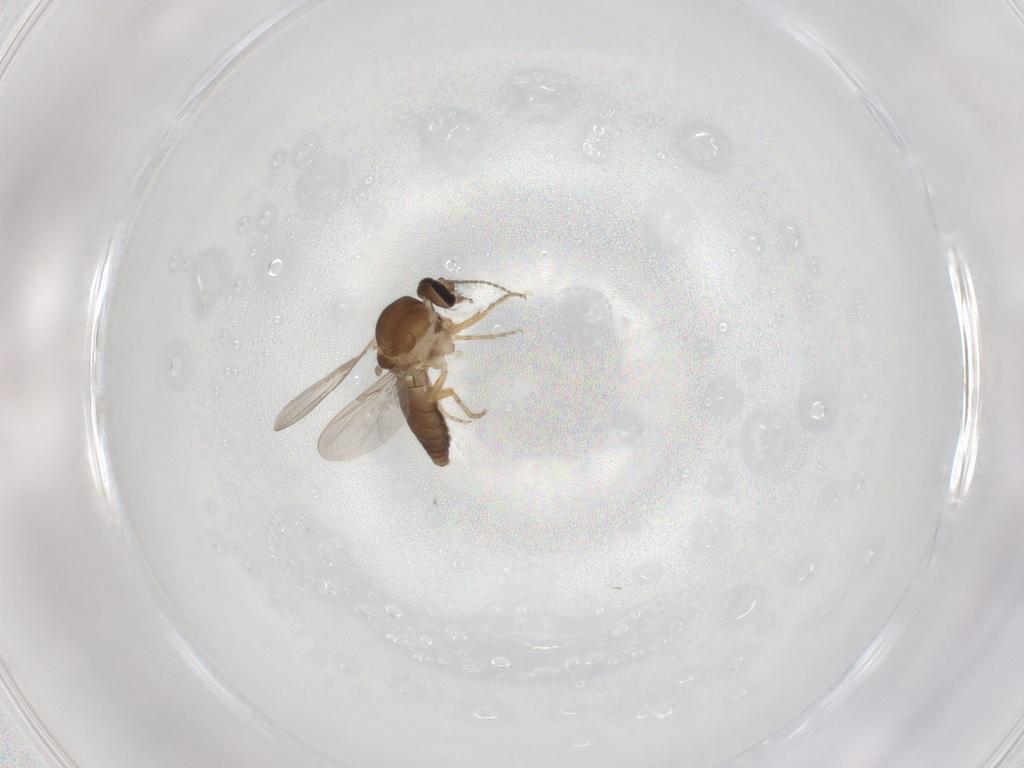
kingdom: Animalia
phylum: Arthropoda
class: Insecta
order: Diptera
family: Ceratopogonidae
